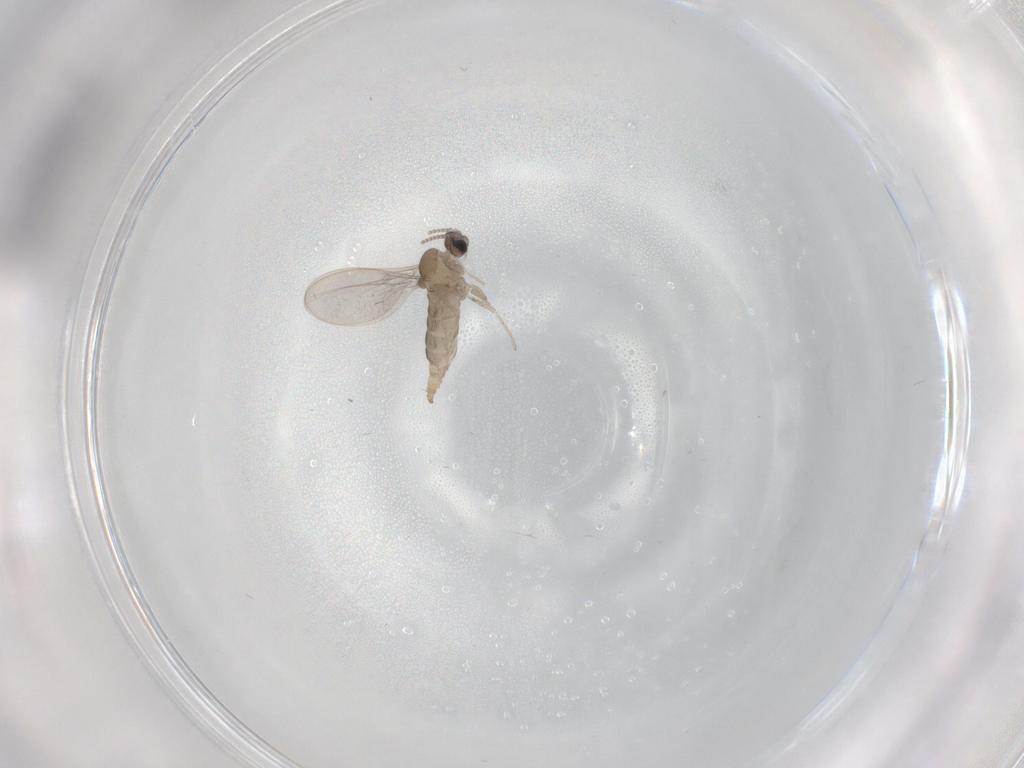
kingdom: Animalia
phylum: Arthropoda
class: Insecta
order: Diptera
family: Cecidomyiidae
